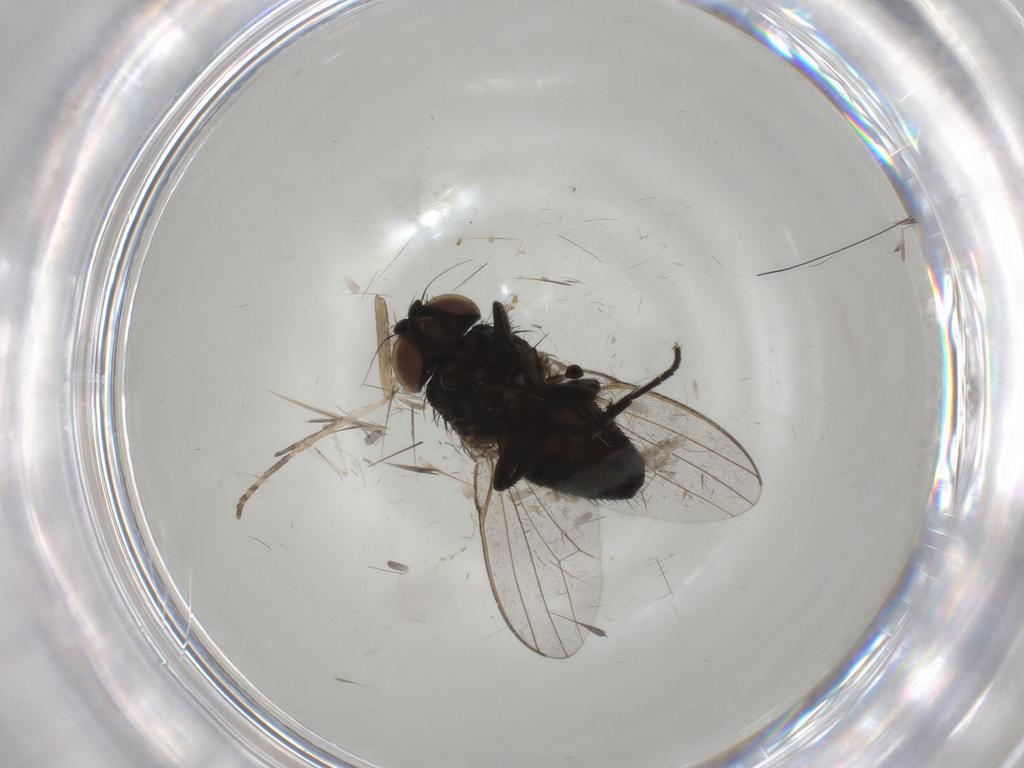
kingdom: Animalia
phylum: Arthropoda
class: Insecta
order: Diptera
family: Milichiidae
